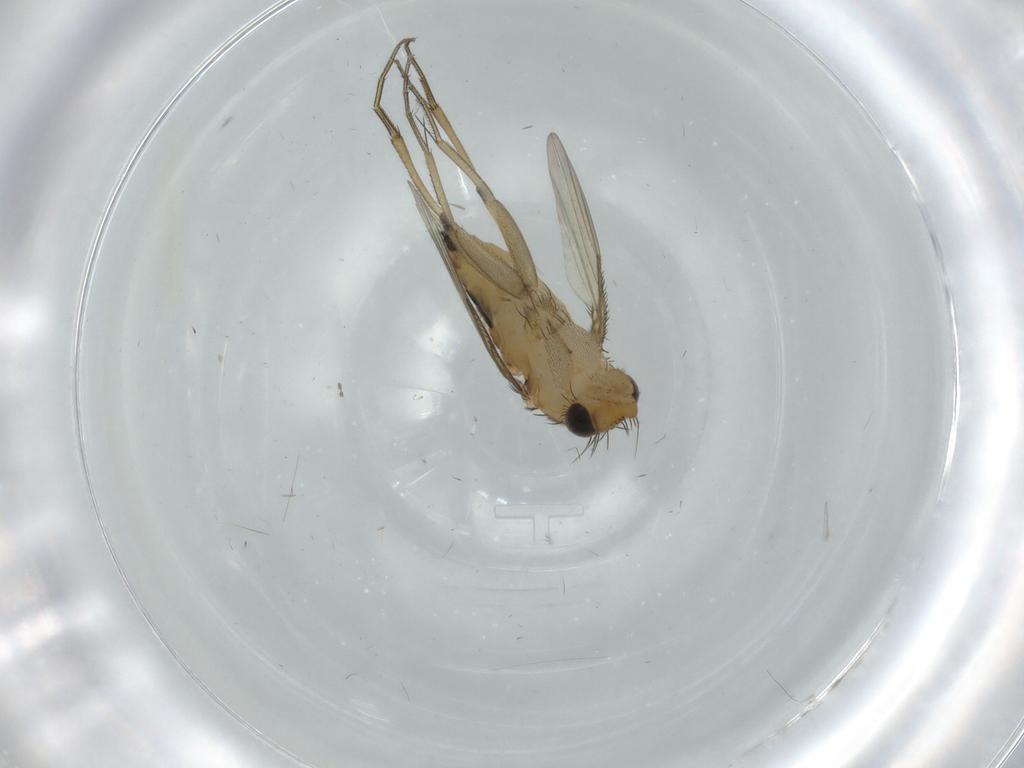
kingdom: Animalia
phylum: Arthropoda
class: Insecta
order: Diptera
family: Phoridae
